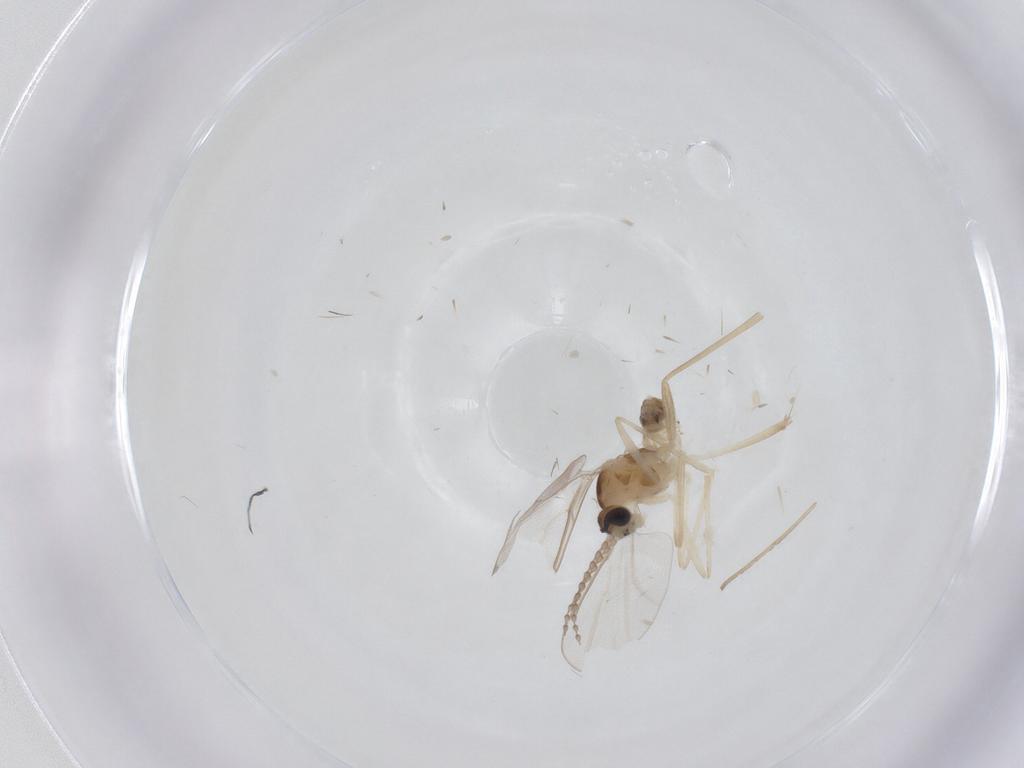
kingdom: Animalia
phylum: Arthropoda
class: Insecta
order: Diptera
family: Cecidomyiidae
